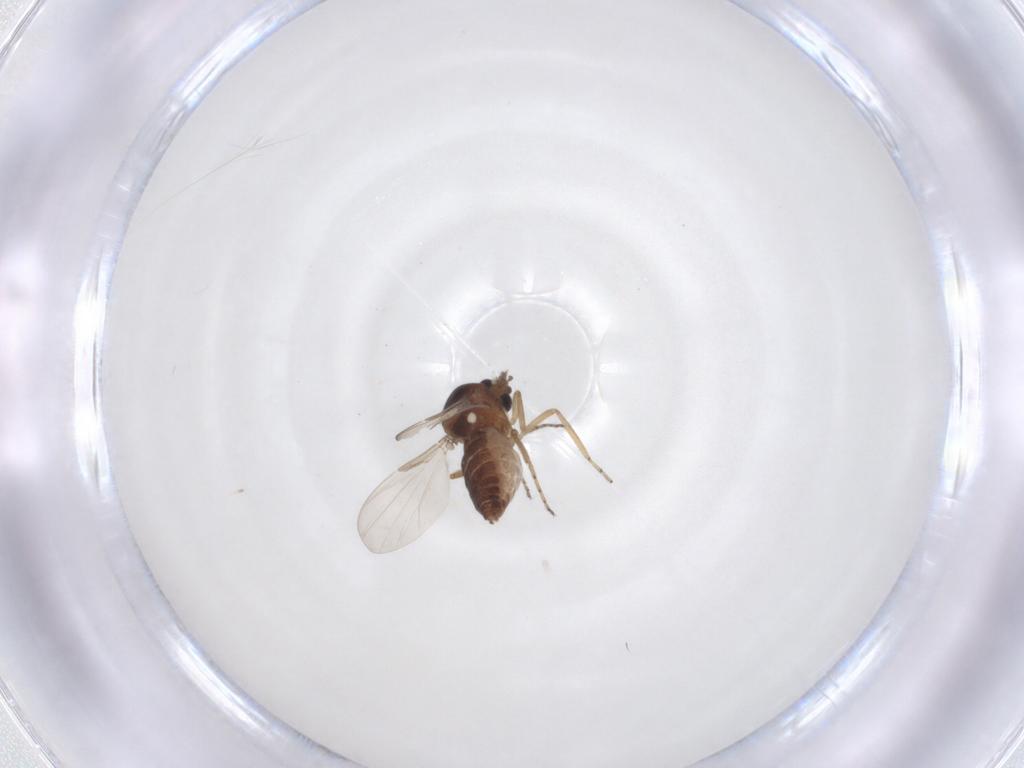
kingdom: Animalia
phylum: Arthropoda
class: Insecta
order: Diptera
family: Ceratopogonidae
